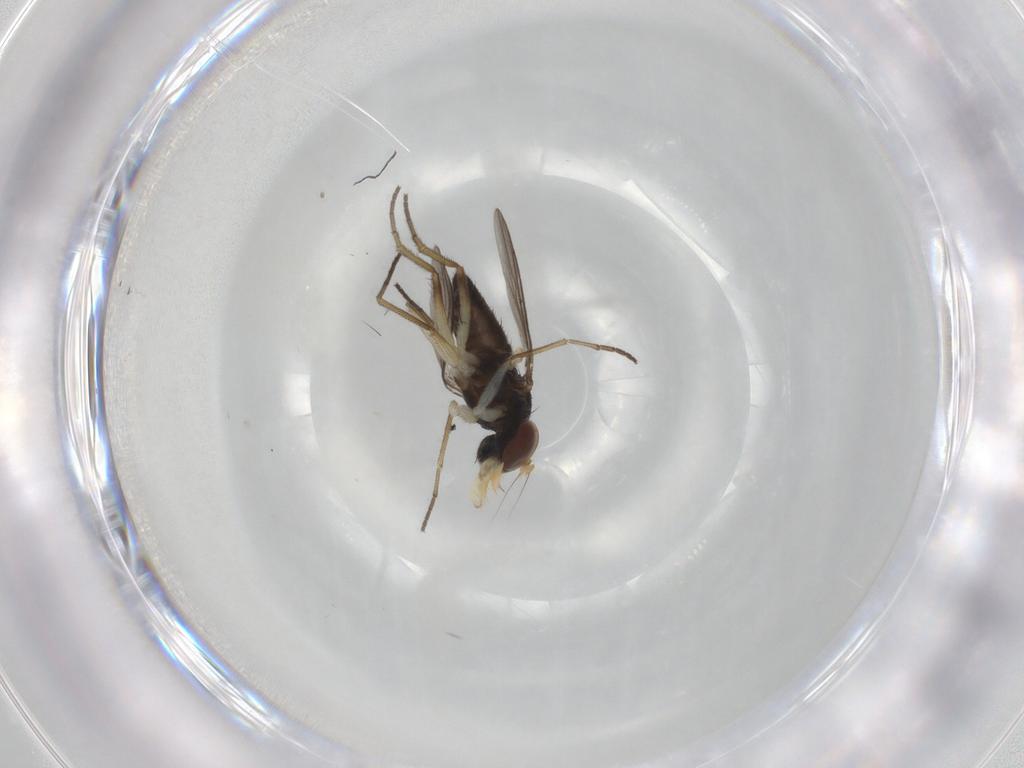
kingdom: Animalia
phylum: Arthropoda
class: Insecta
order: Diptera
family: Dolichopodidae
